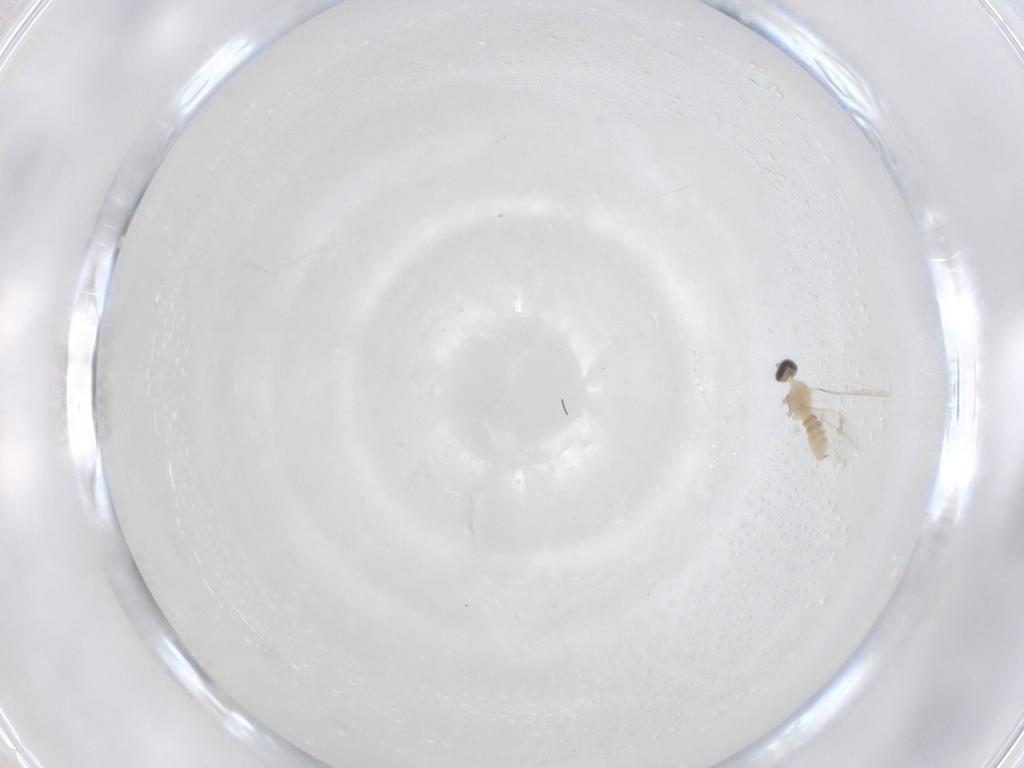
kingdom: Animalia
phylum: Arthropoda
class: Insecta
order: Diptera
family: Cecidomyiidae
